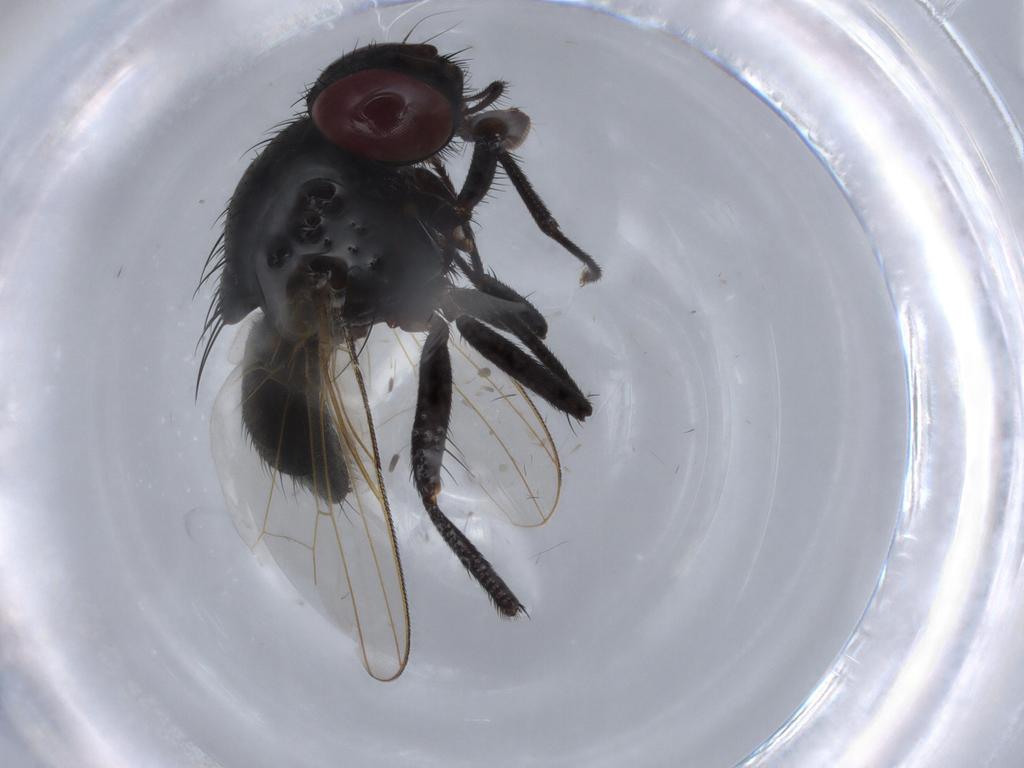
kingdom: Animalia
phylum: Arthropoda
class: Insecta
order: Diptera
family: Muscidae
